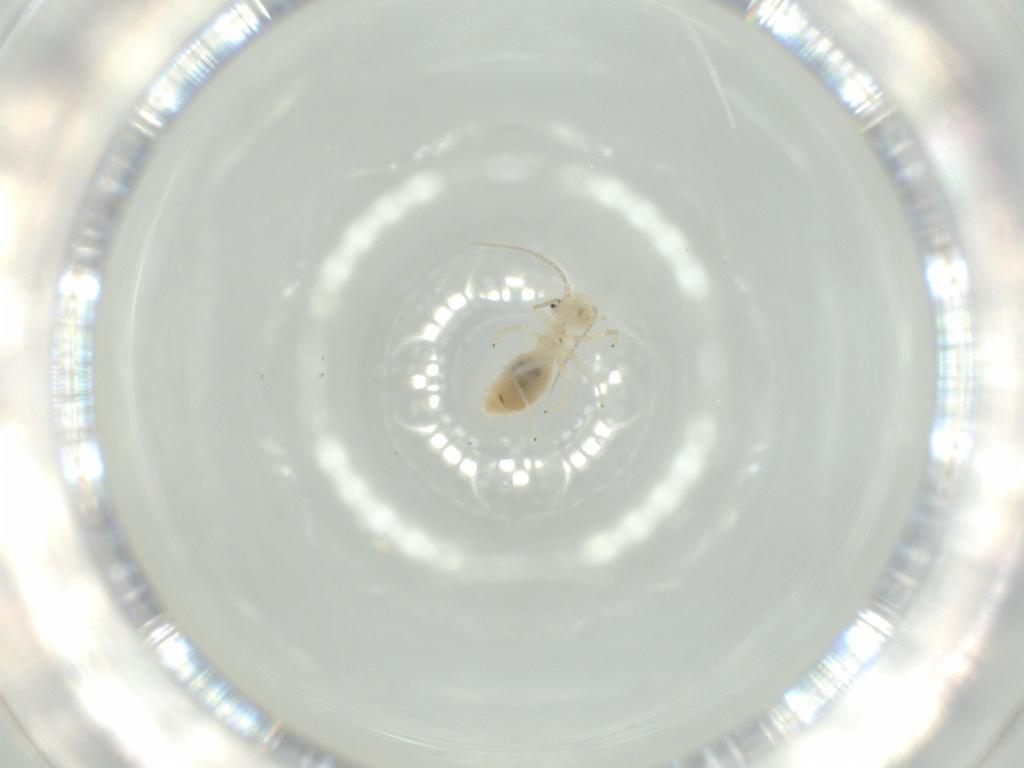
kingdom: Animalia
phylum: Arthropoda
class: Insecta
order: Psocodea
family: Caeciliusidae
